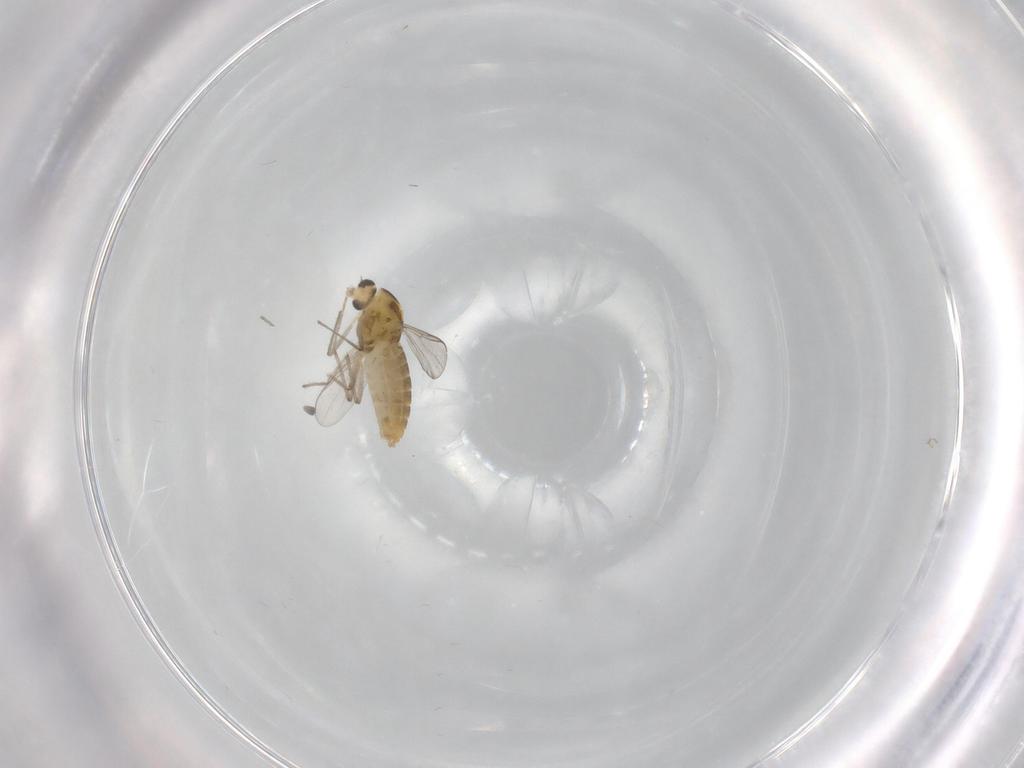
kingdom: Animalia
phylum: Arthropoda
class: Insecta
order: Diptera
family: Chironomidae
